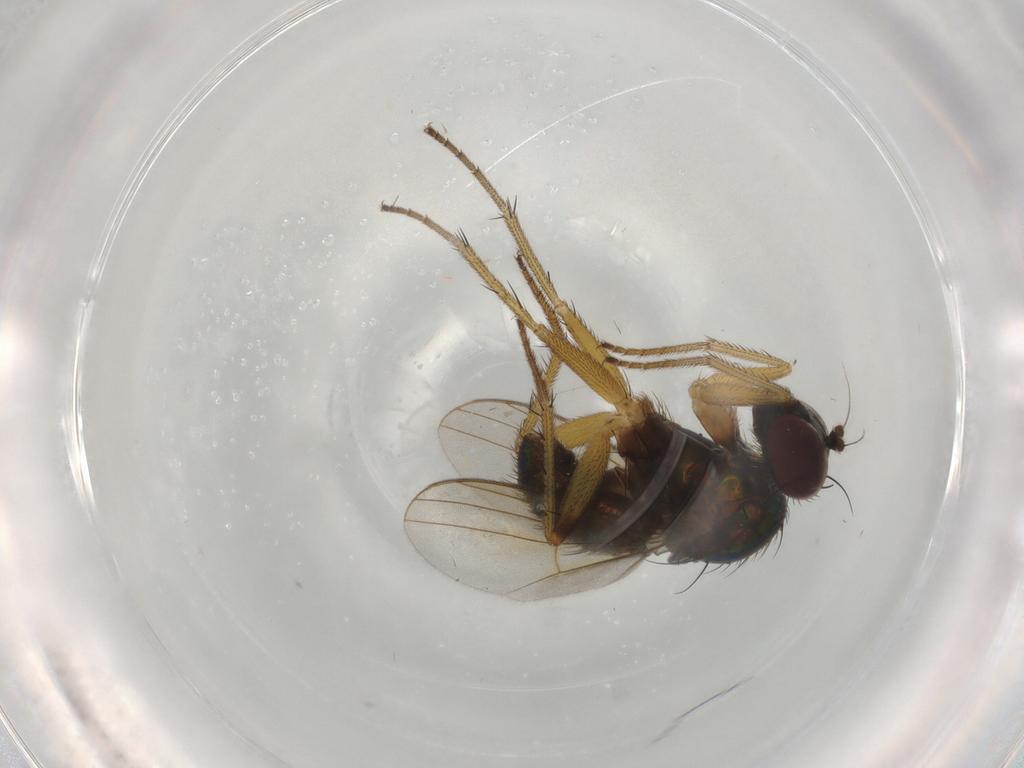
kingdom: Animalia
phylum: Arthropoda
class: Insecta
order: Diptera
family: Dolichopodidae
